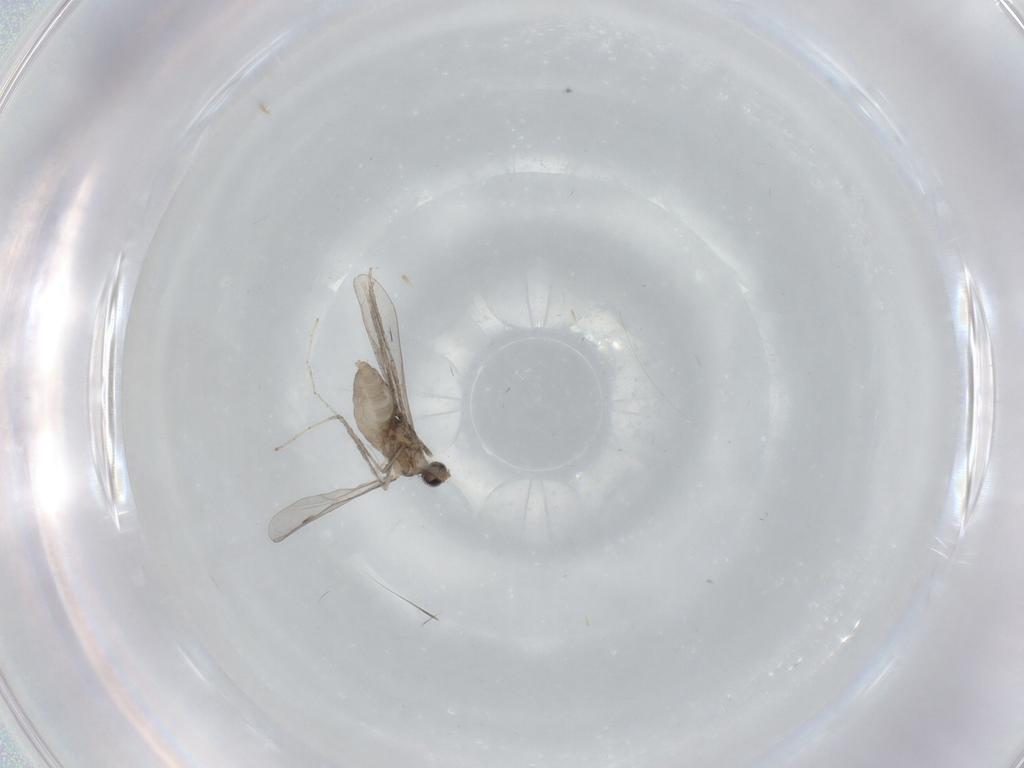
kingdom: Animalia
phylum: Arthropoda
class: Insecta
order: Diptera
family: Cecidomyiidae
